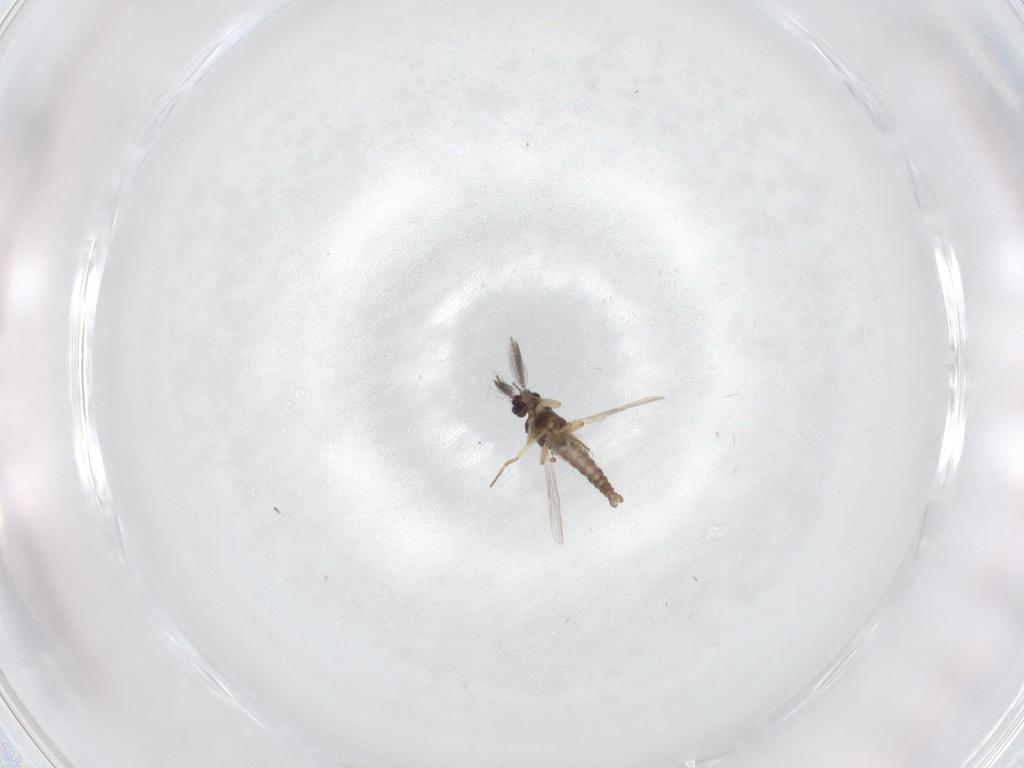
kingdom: Animalia
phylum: Arthropoda
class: Insecta
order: Diptera
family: Ceratopogonidae
